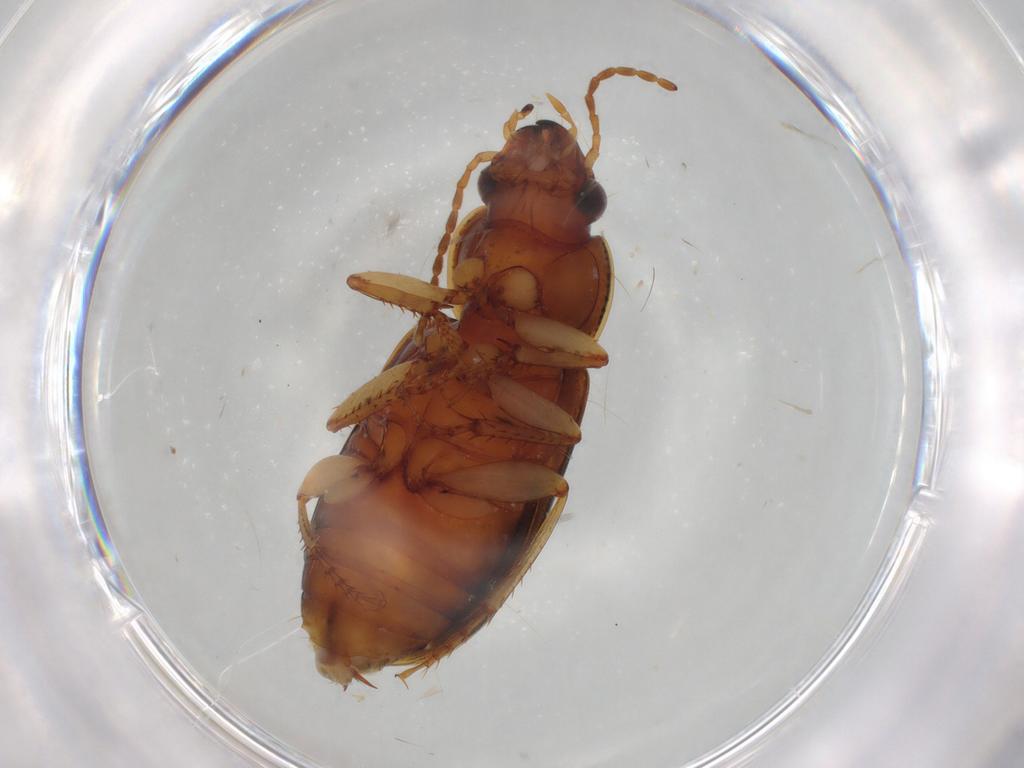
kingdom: Animalia
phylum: Arthropoda
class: Insecta
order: Coleoptera
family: Carabidae
